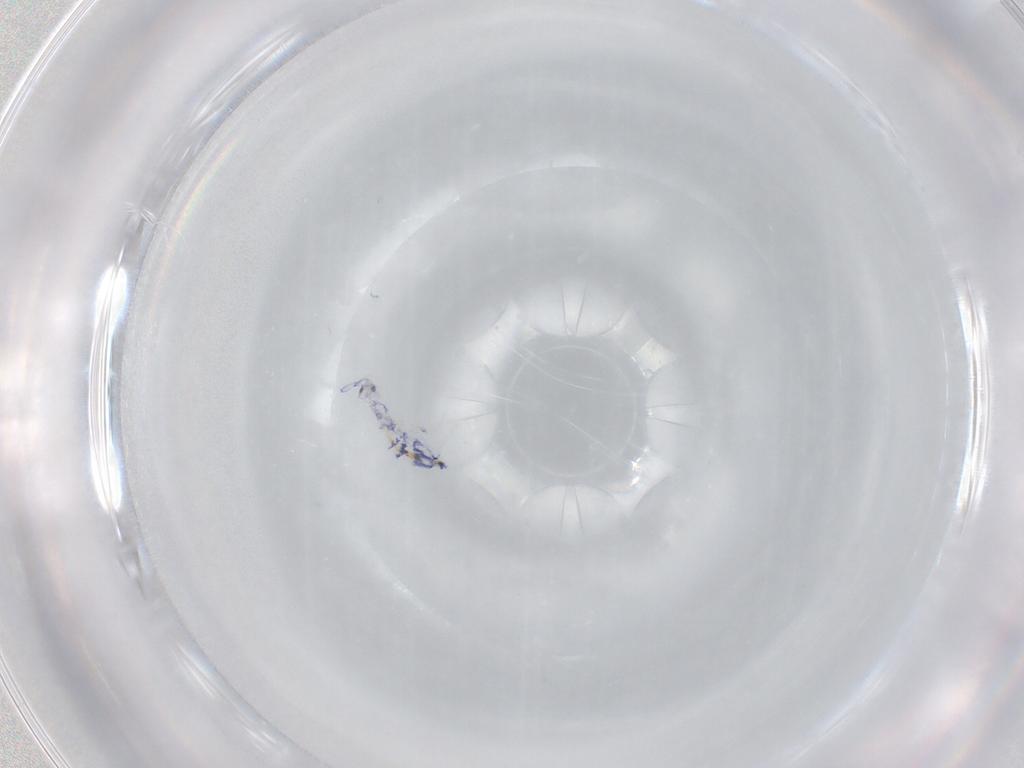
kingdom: Animalia
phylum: Arthropoda
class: Collembola
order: Entomobryomorpha
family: Entomobryidae
